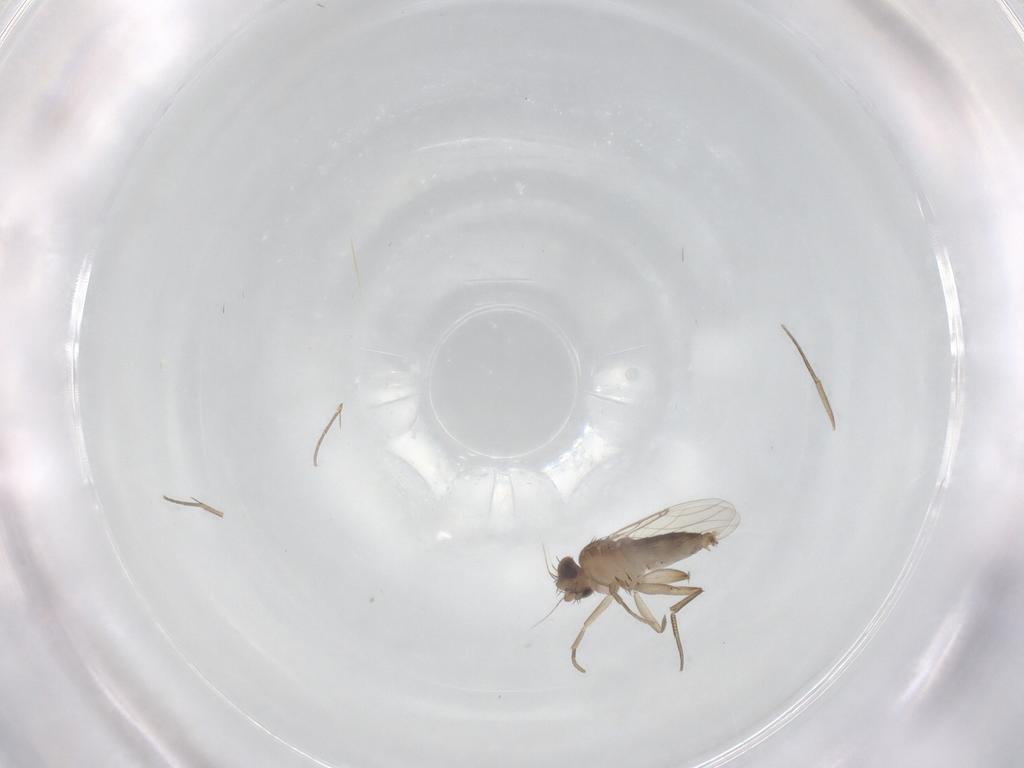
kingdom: Animalia
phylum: Arthropoda
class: Insecta
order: Diptera
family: Phoridae
